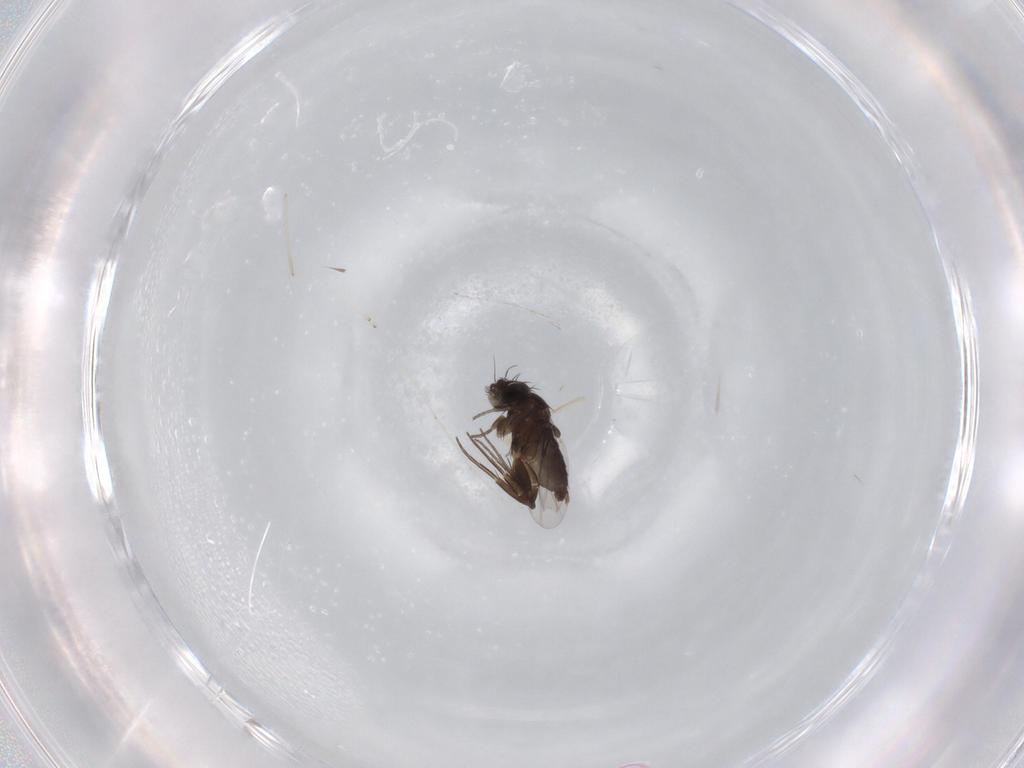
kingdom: Animalia
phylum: Arthropoda
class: Insecta
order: Diptera
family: Phoridae
